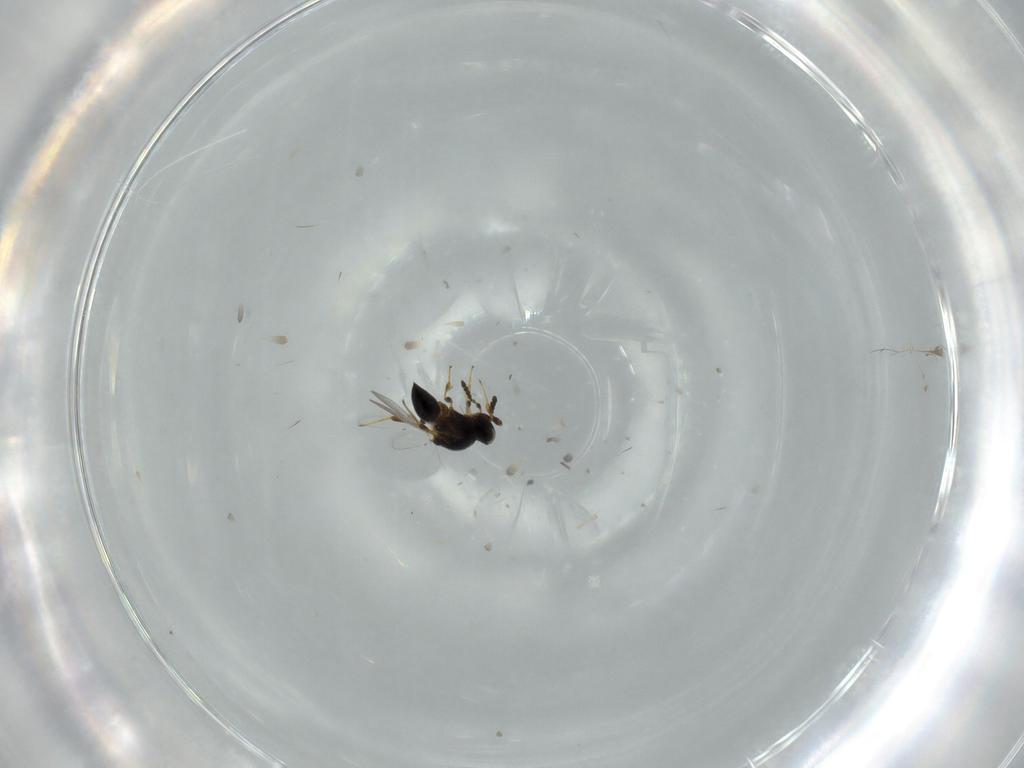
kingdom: Animalia
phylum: Arthropoda
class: Insecta
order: Hymenoptera
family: Platygastridae
